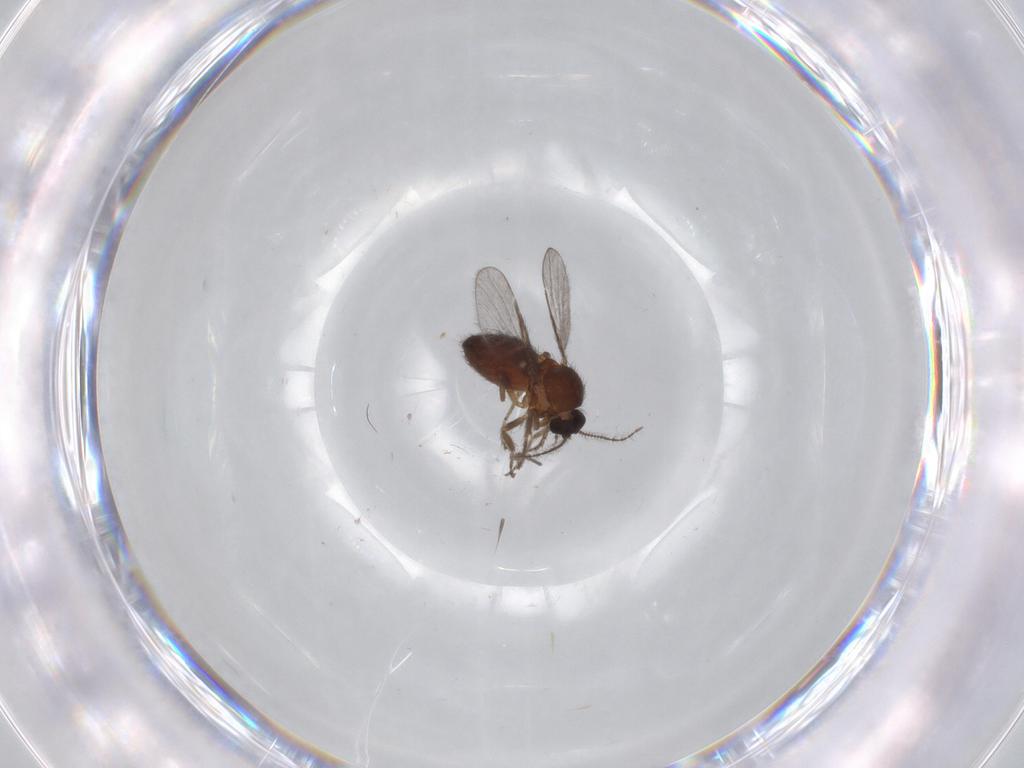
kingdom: Animalia
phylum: Arthropoda
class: Insecta
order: Diptera
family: Ceratopogonidae
